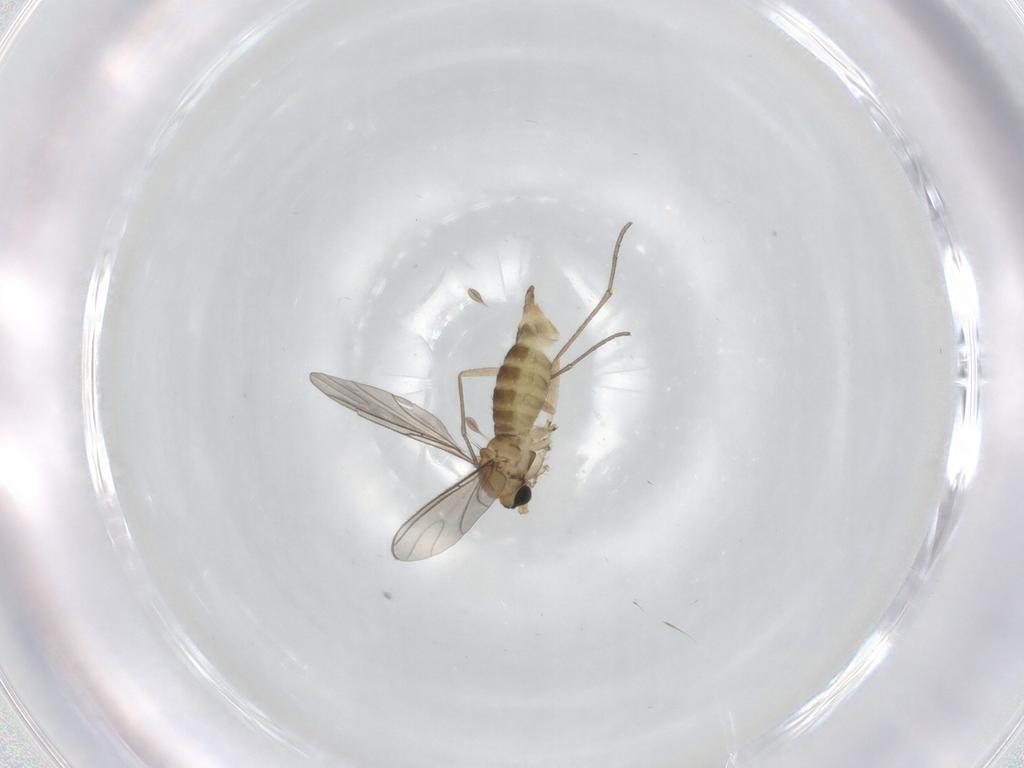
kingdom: Animalia
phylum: Arthropoda
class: Insecta
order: Diptera
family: Sciaridae
